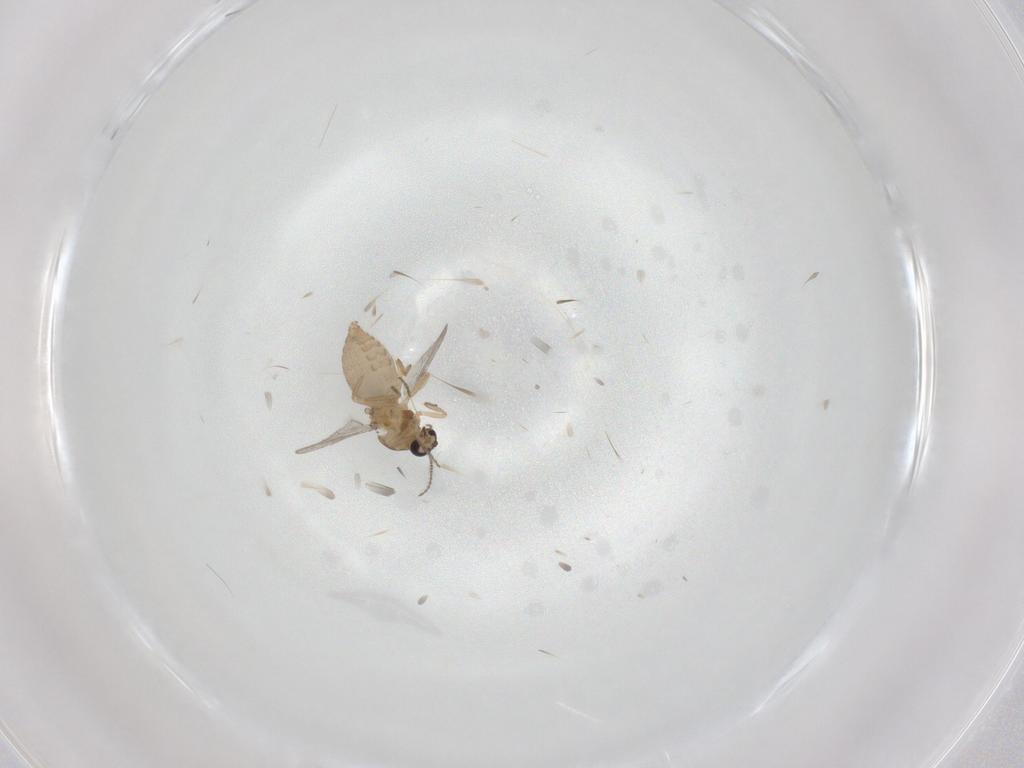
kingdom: Animalia
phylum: Arthropoda
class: Insecta
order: Diptera
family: Ceratopogonidae
